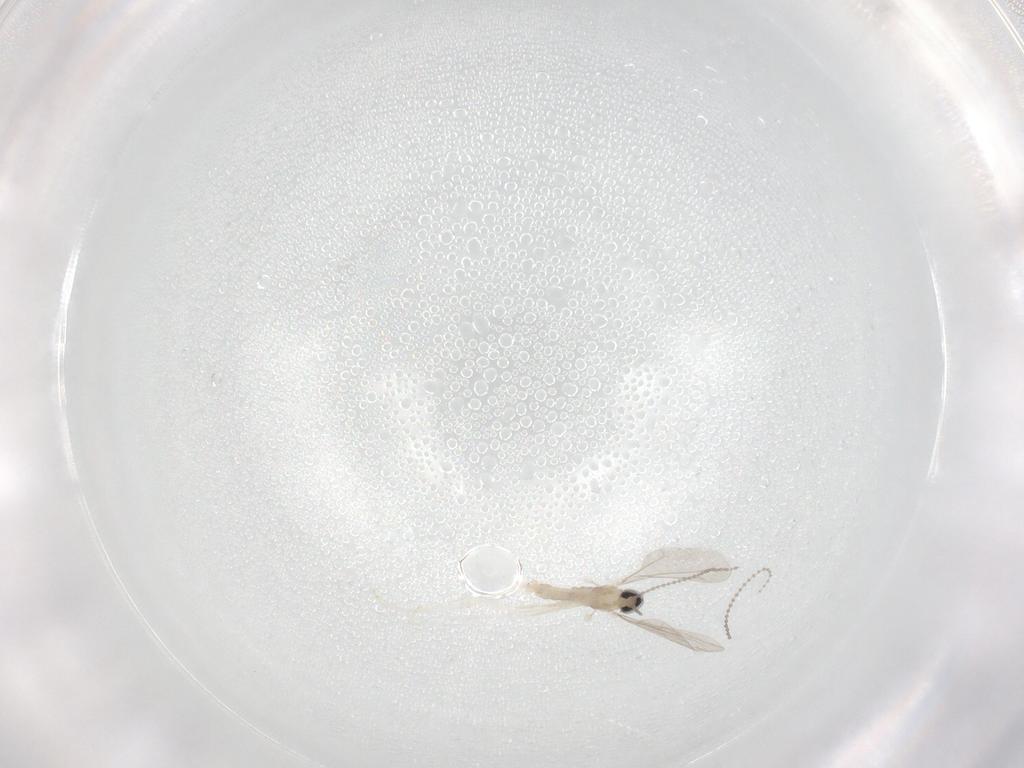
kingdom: Animalia
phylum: Arthropoda
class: Insecta
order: Diptera
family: Cecidomyiidae
